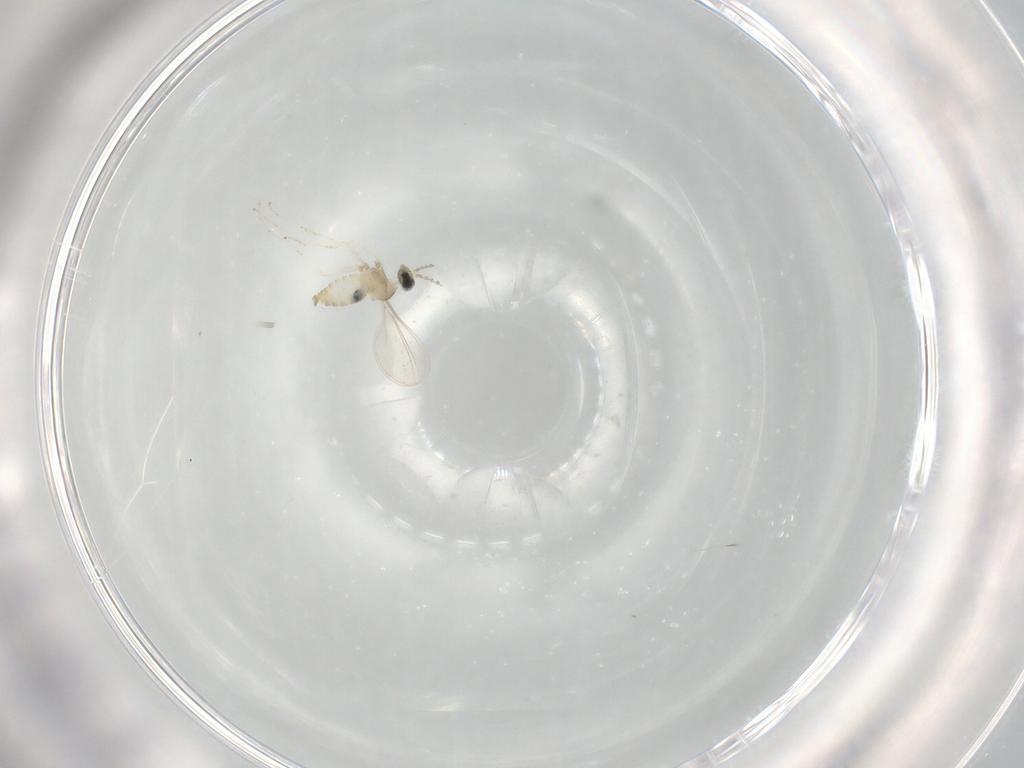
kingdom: Animalia
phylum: Arthropoda
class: Insecta
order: Diptera
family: Cecidomyiidae
